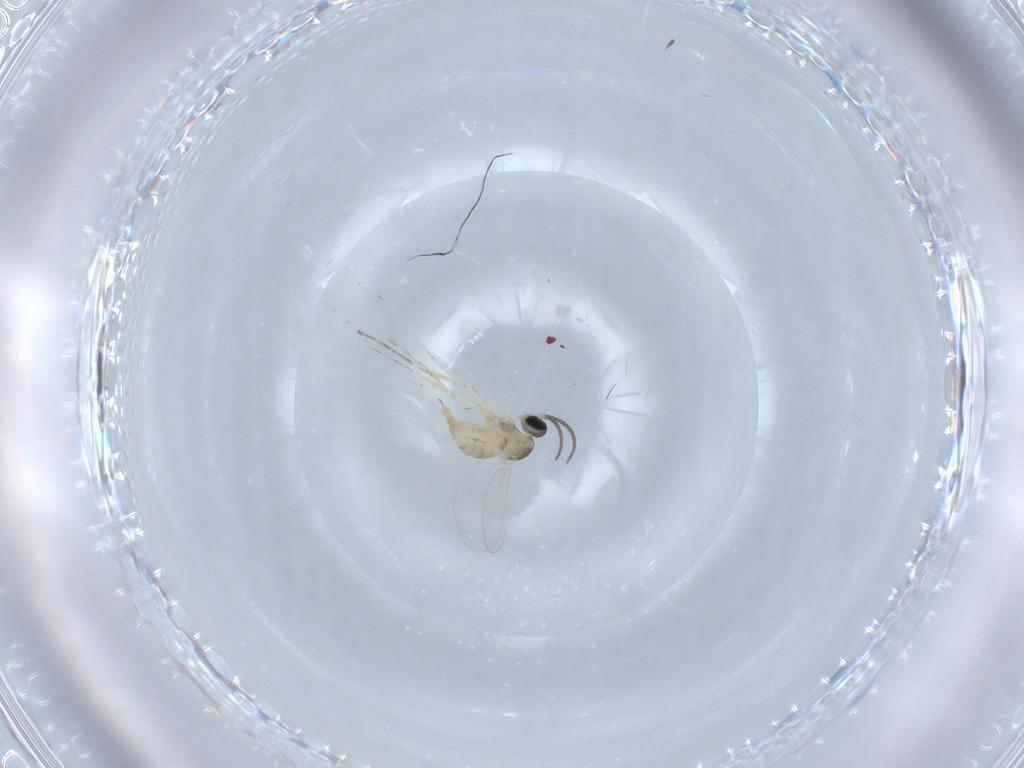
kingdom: Animalia
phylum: Arthropoda
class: Insecta
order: Diptera
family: Cecidomyiidae
